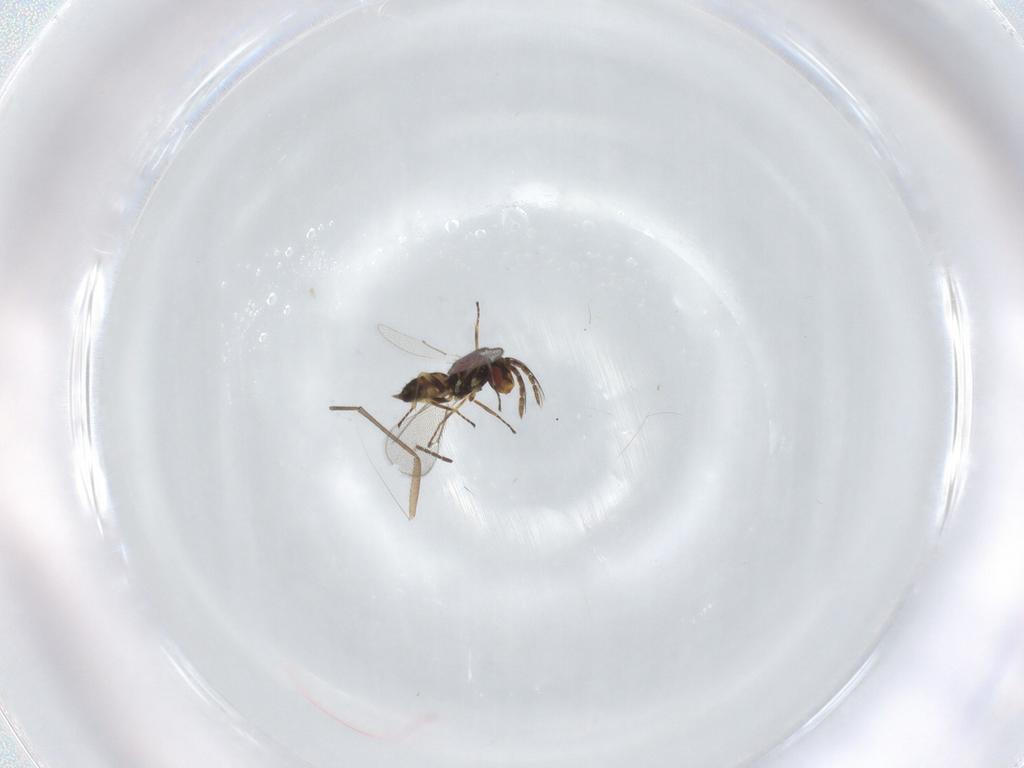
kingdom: Animalia
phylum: Arthropoda
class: Insecta
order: Hymenoptera
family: Eulophidae
